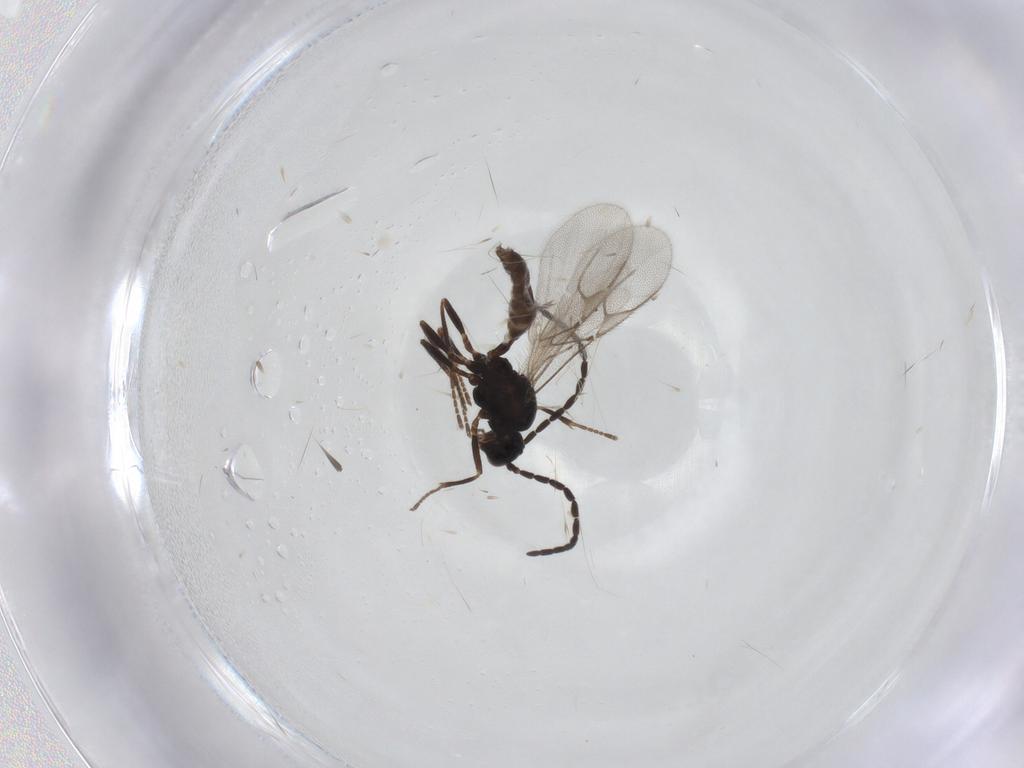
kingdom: Animalia
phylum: Arthropoda
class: Insecta
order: Hymenoptera
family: Braconidae
